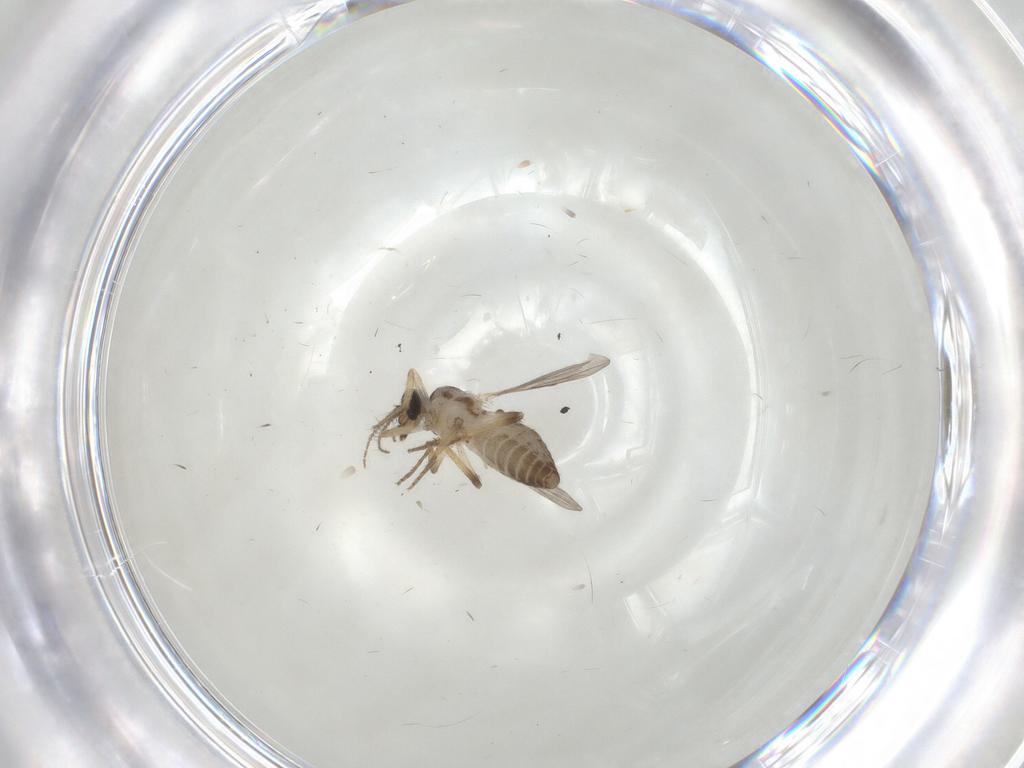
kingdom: Animalia
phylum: Arthropoda
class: Insecta
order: Diptera
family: Ceratopogonidae
